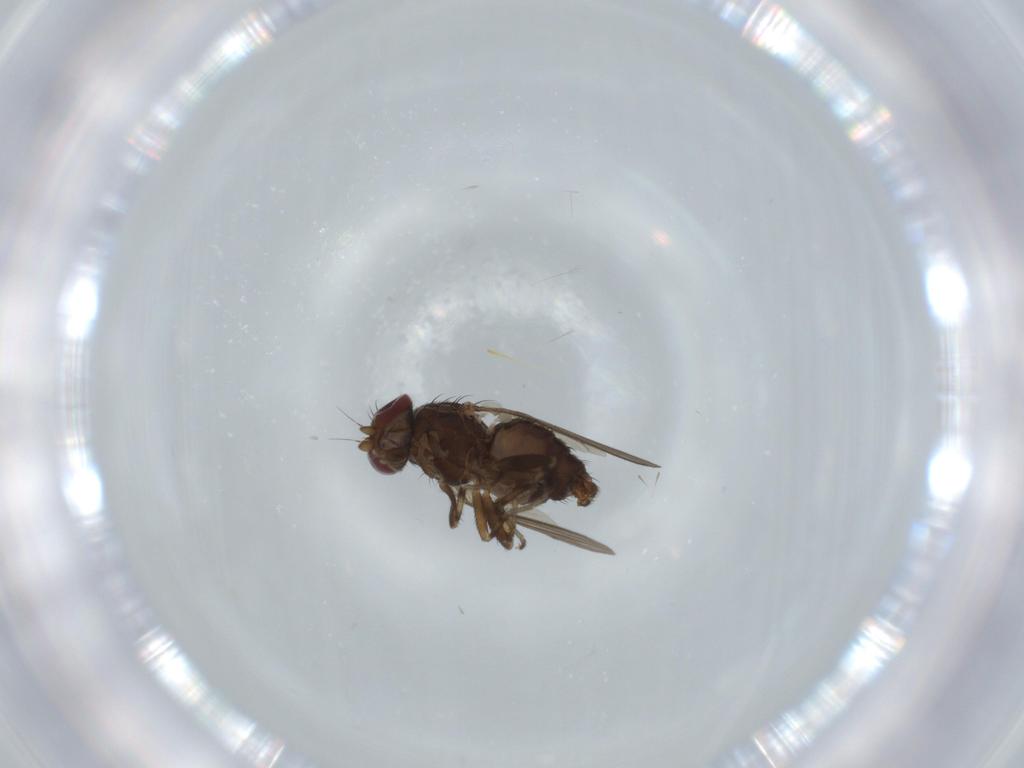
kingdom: Animalia
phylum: Arthropoda
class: Insecta
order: Diptera
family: Heleomyzidae
